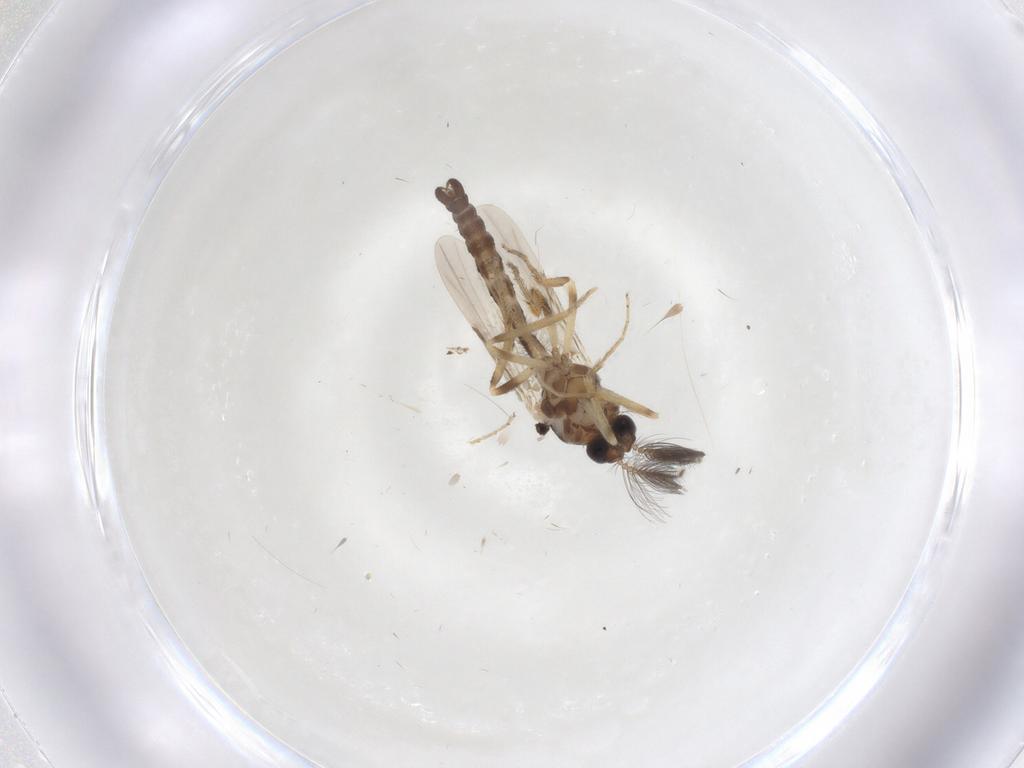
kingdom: Animalia
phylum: Arthropoda
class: Insecta
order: Diptera
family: Ceratopogonidae
